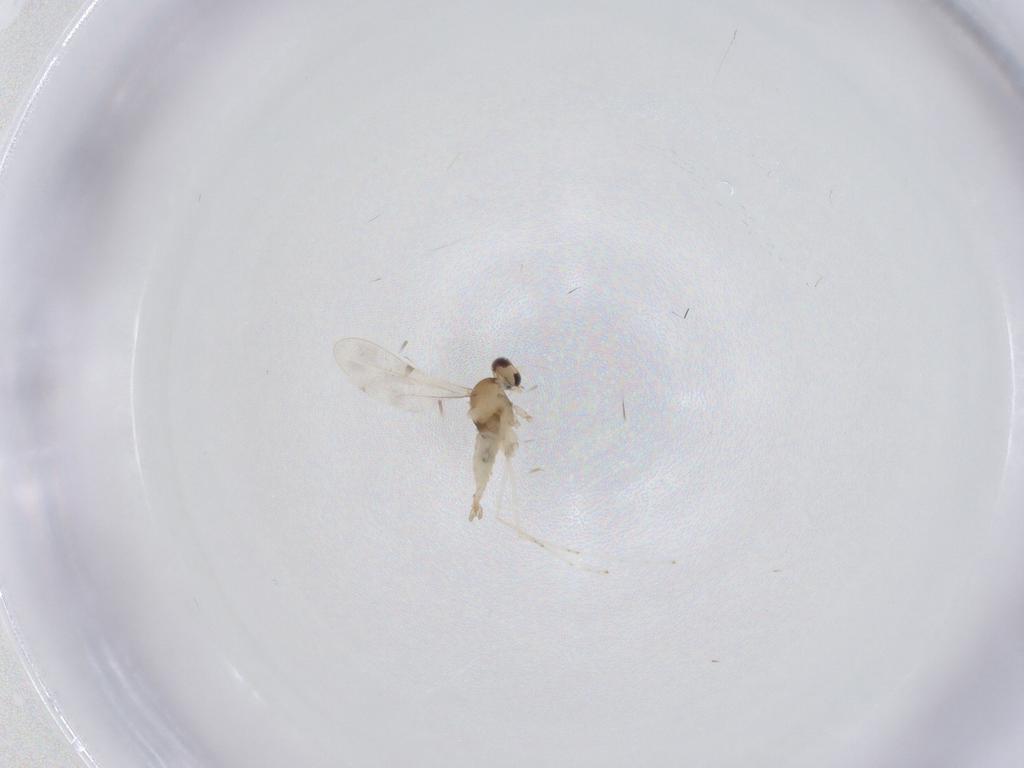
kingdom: Animalia
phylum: Arthropoda
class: Insecta
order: Diptera
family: Cecidomyiidae
